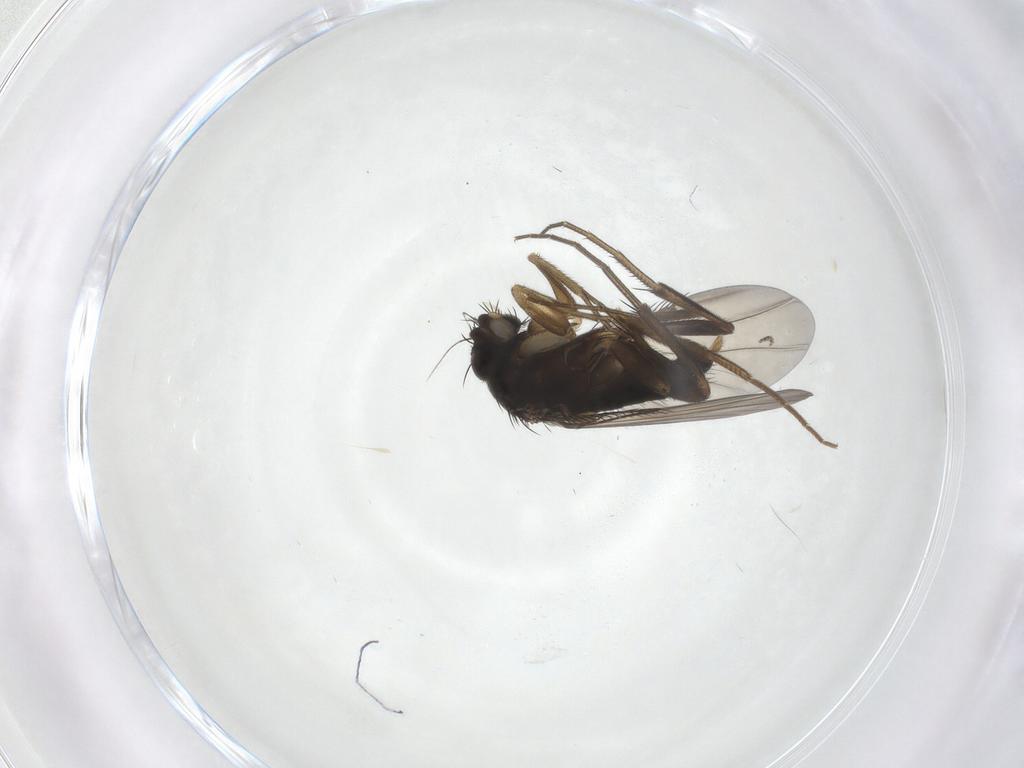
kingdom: Animalia
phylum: Arthropoda
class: Insecta
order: Diptera
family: Phoridae
